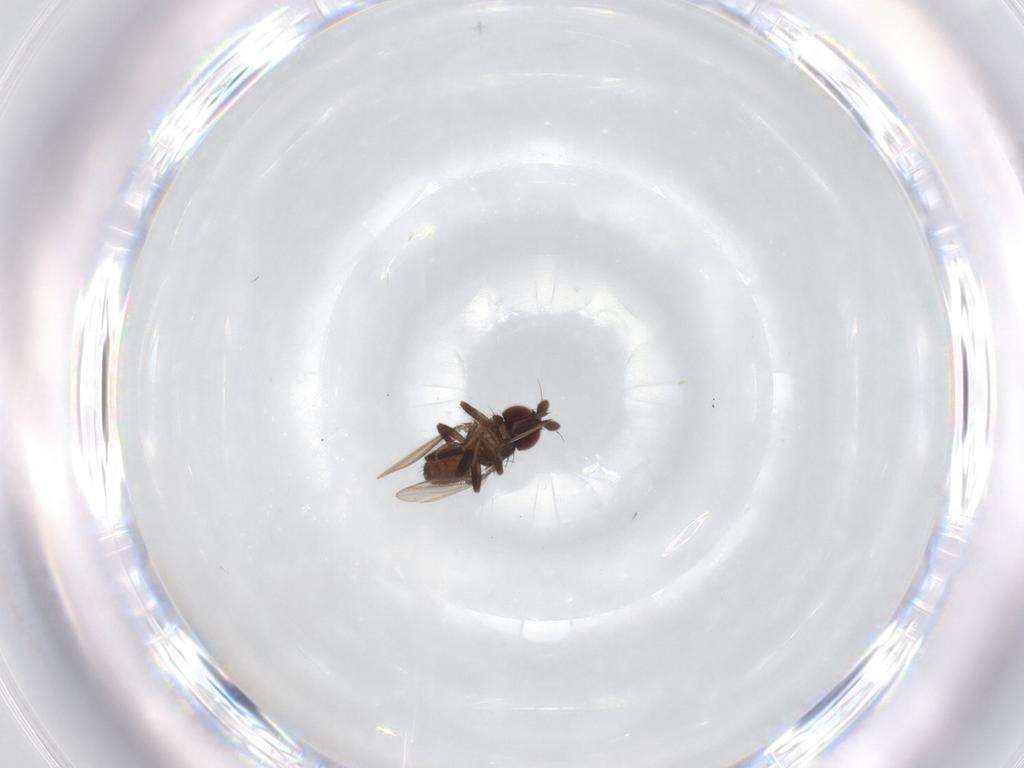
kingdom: Animalia
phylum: Arthropoda
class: Insecta
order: Diptera
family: Milichiidae
